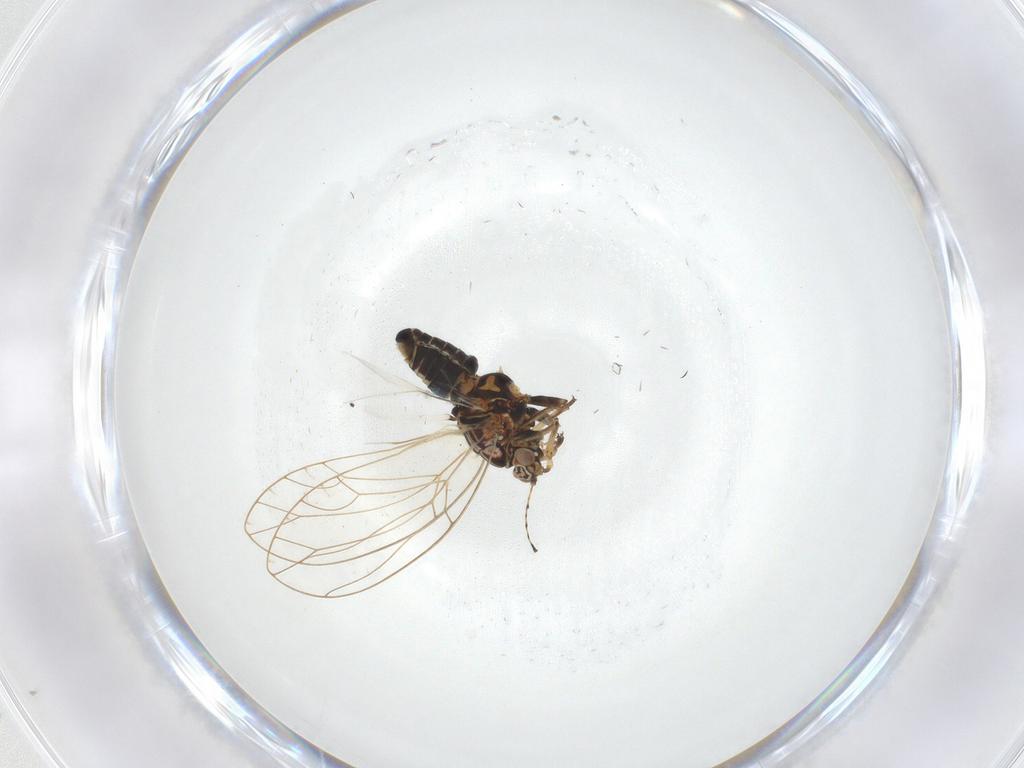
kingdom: Animalia
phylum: Arthropoda
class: Insecta
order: Hemiptera
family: Triozidae
